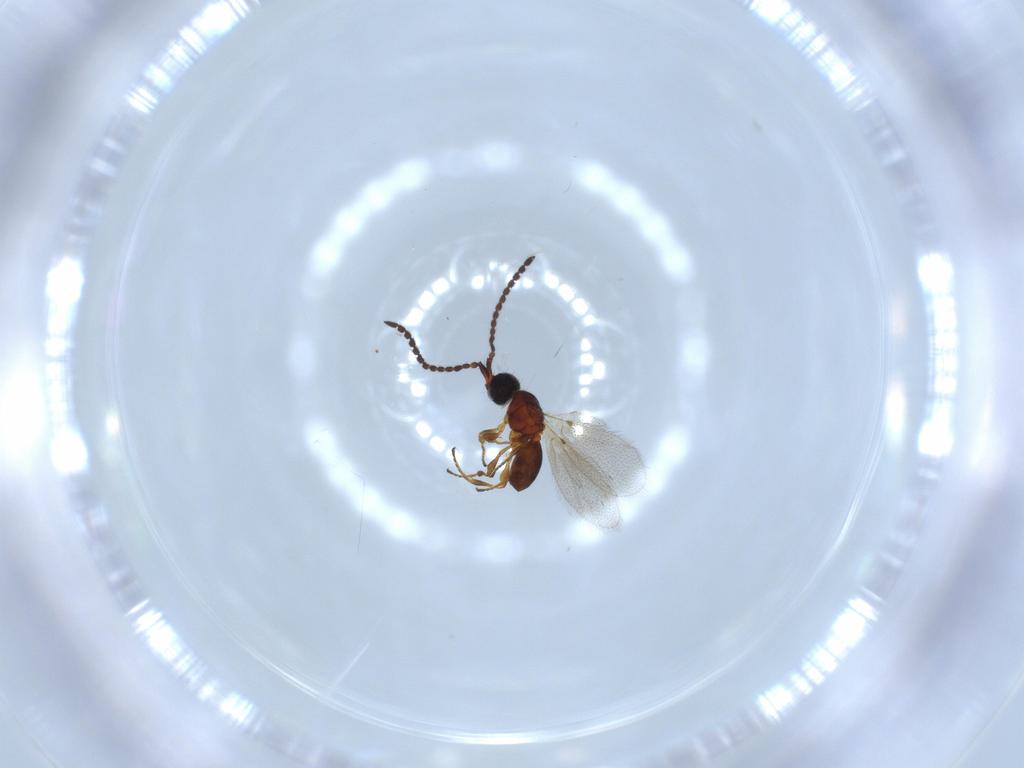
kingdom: Animalia
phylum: Arthropoda
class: Insecta
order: Hymenoptera
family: Diapriidae
